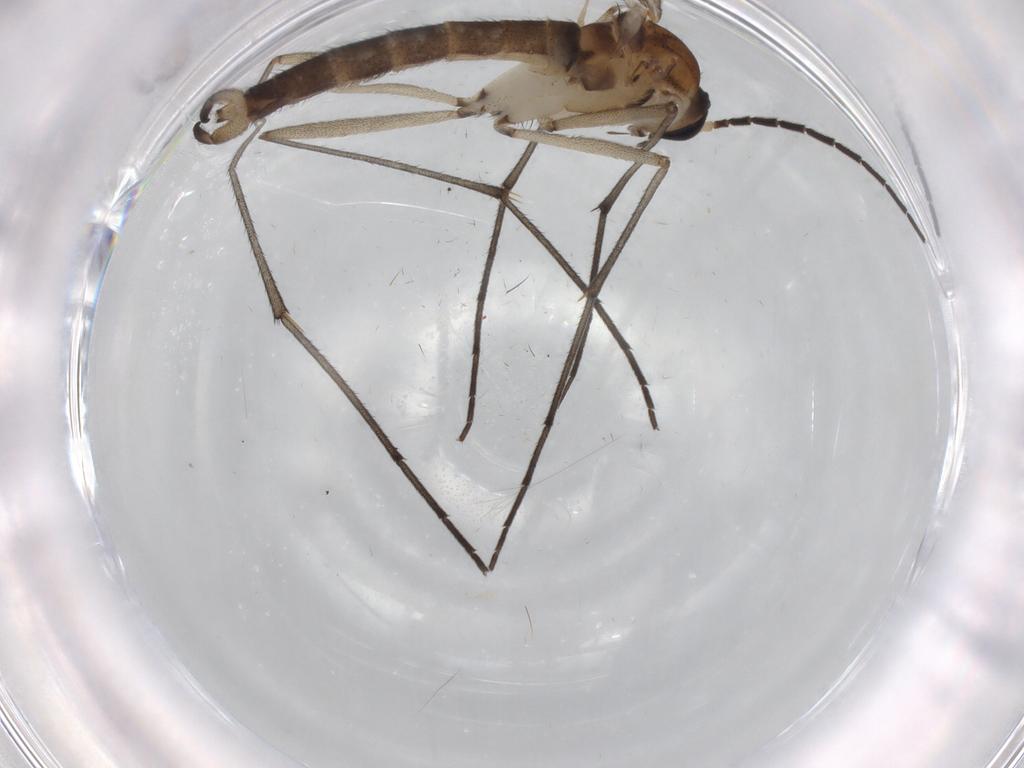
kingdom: Animalia
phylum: Arthropoda
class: Insecta
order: Diptera
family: Sciaridae
